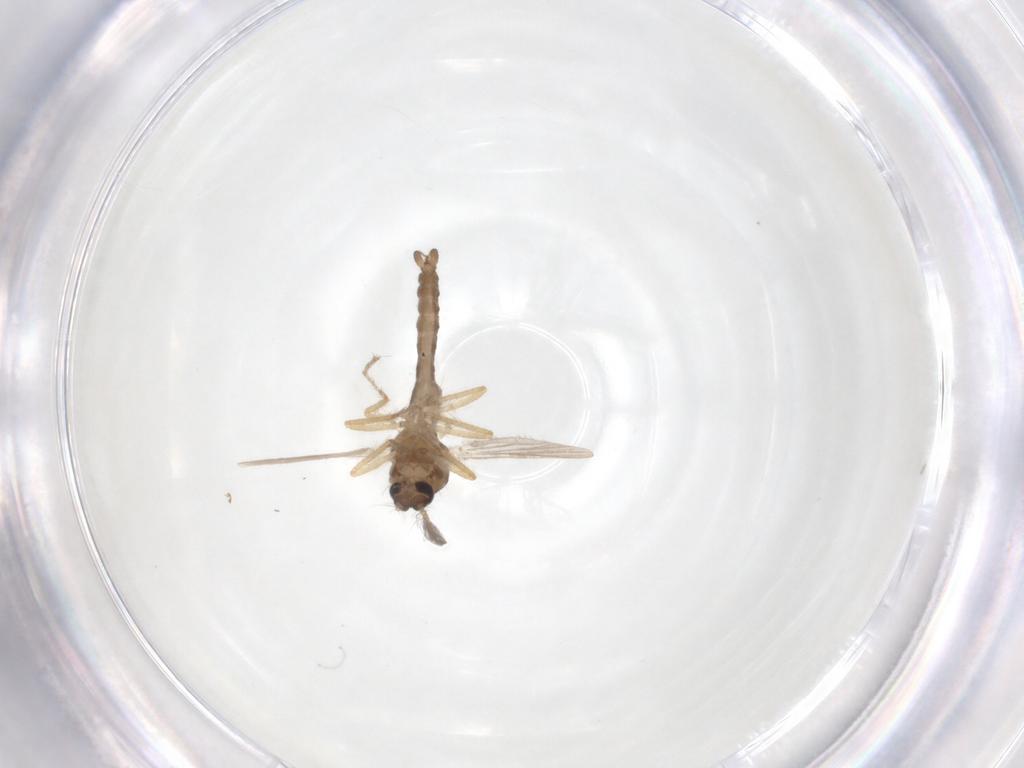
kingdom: Animalia
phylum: Arthropoda
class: Insecta
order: Diptera
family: Ceratopogonidae
